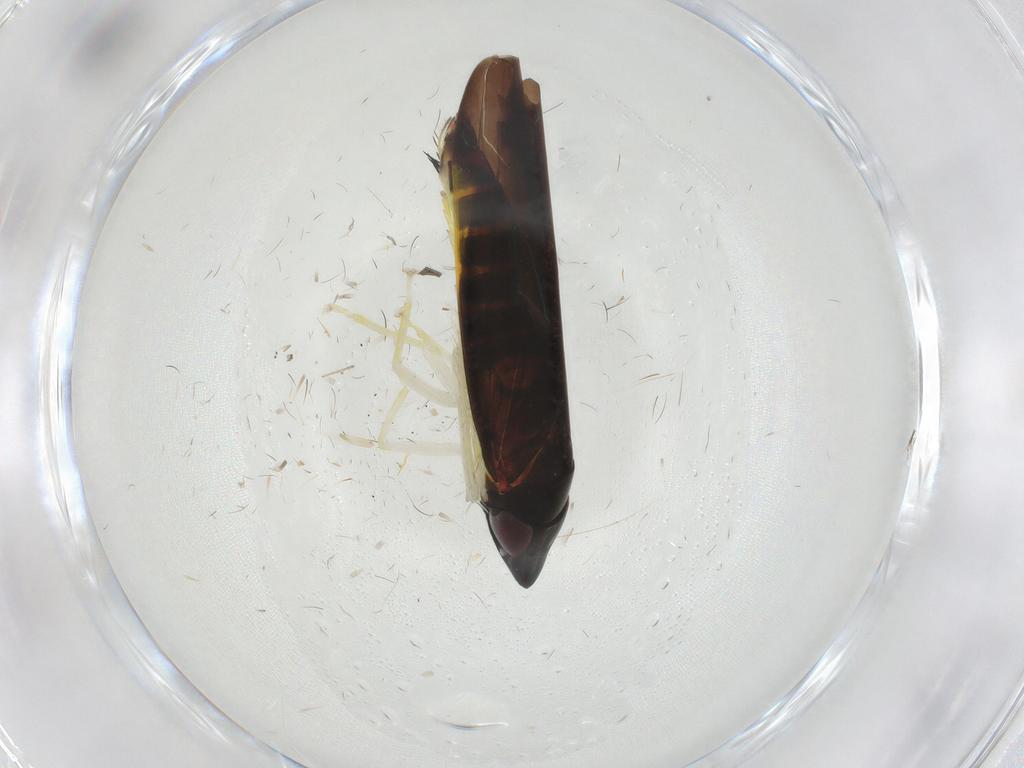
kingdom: Animalia
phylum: Arthropoda
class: Insecta
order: Hemiptera
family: Cicadellidae
